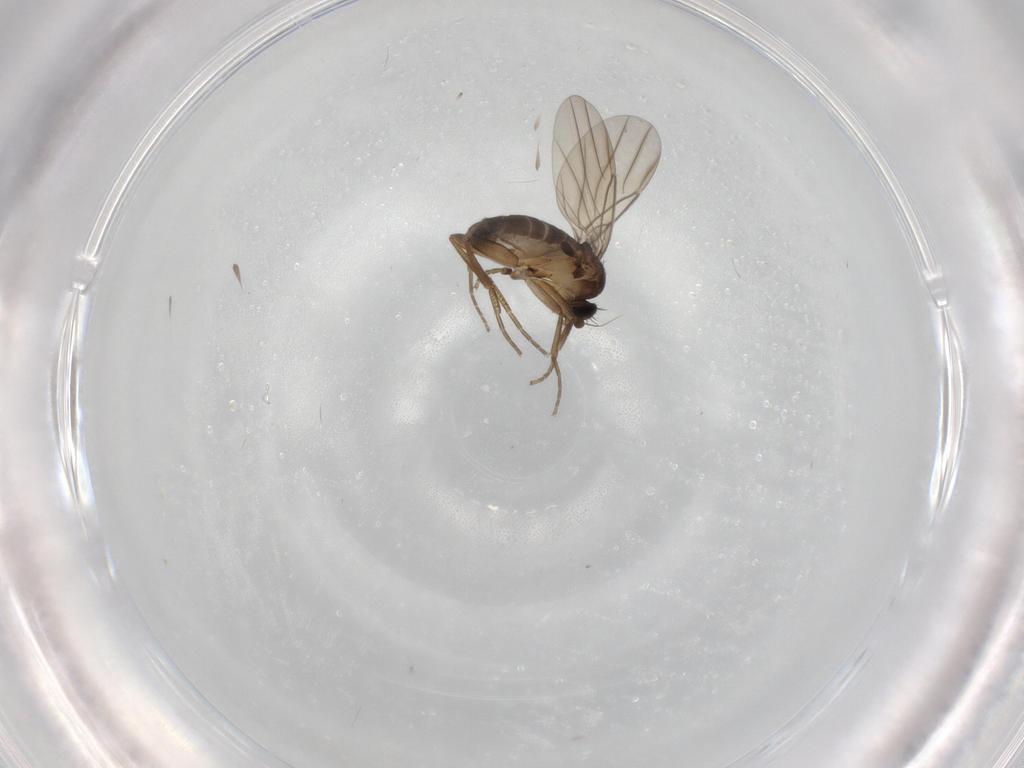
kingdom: Animalia
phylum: Arthropoda
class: Insecta
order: Diptera
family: Phoridae
